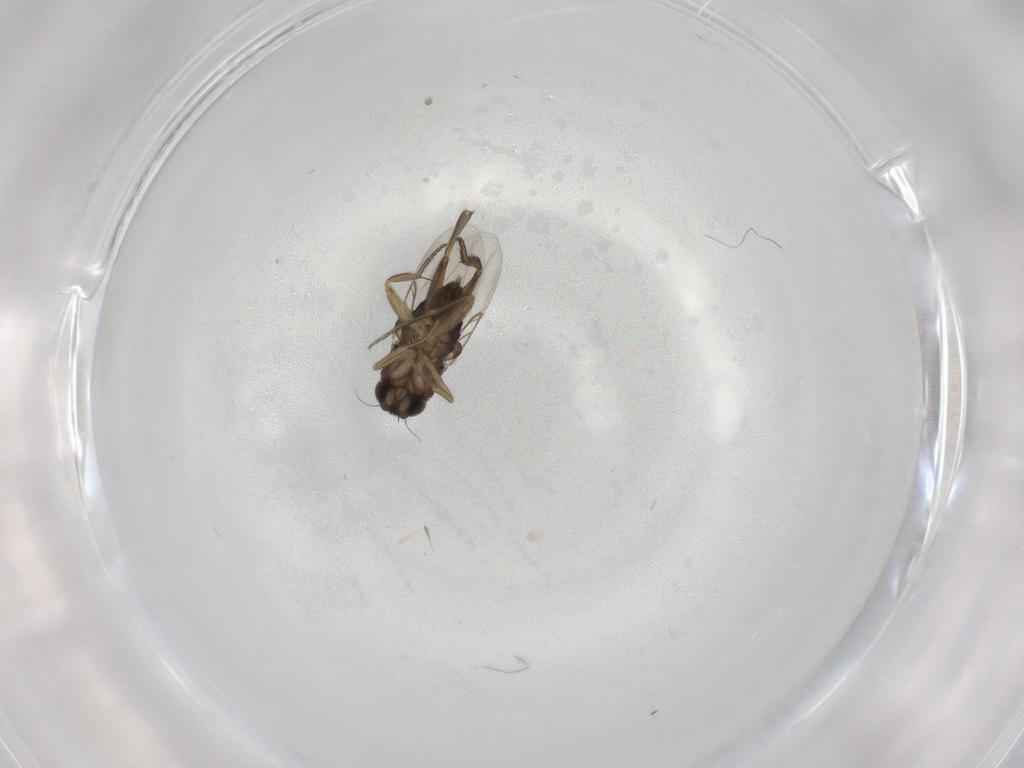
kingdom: Animalia
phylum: Arthropoda
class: Insecta
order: Diptera
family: Phoridae
